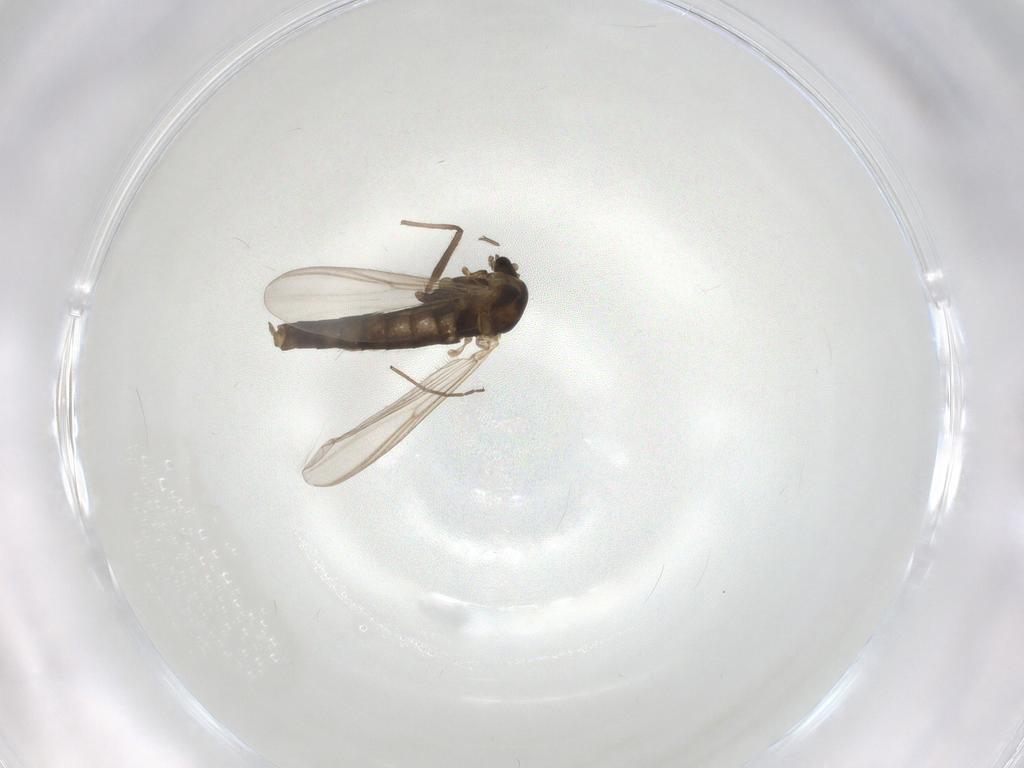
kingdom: Animalia
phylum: Arthropoda
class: Insecta
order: Diptera
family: Chironomidae
